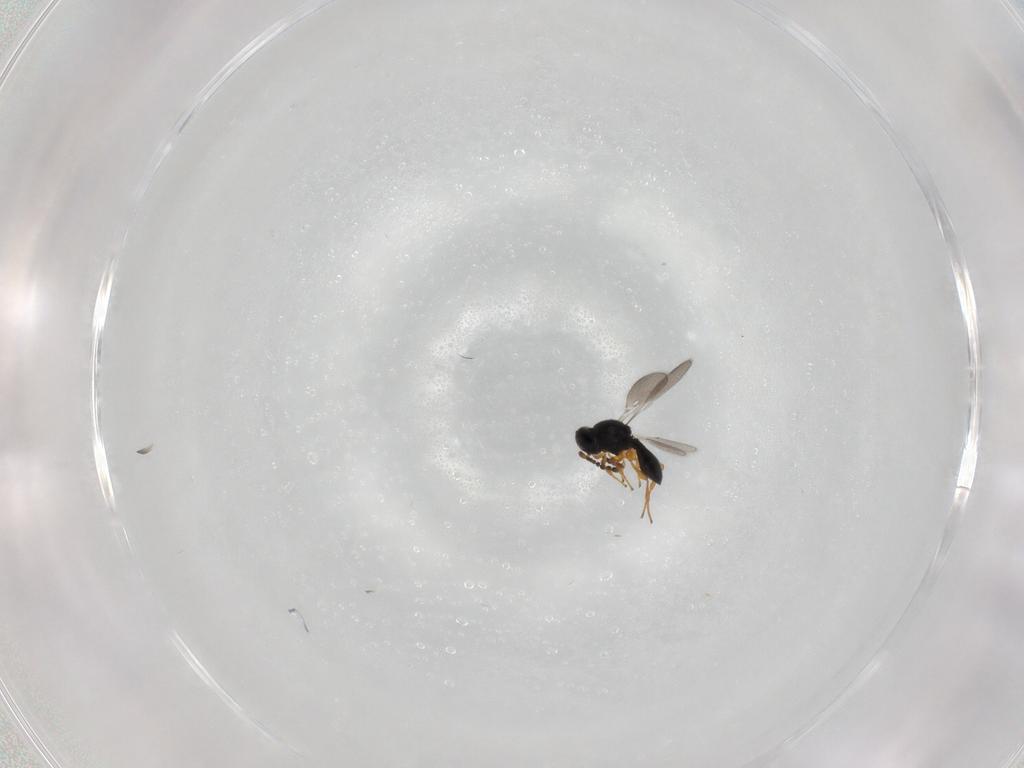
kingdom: Animalia
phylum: Arthropoda
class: Insecta
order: Hymenoptera
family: Platygastridae
